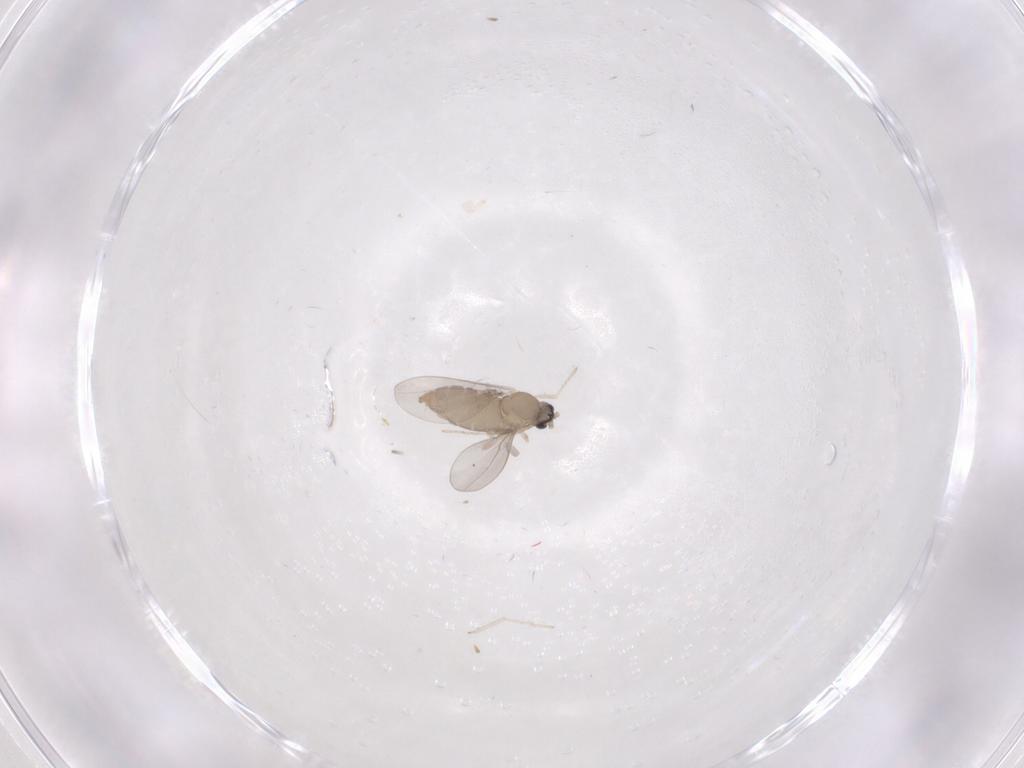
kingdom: Animalia
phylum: Arthropoda
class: Insecta
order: Diptera
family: Cecidomyiidae
